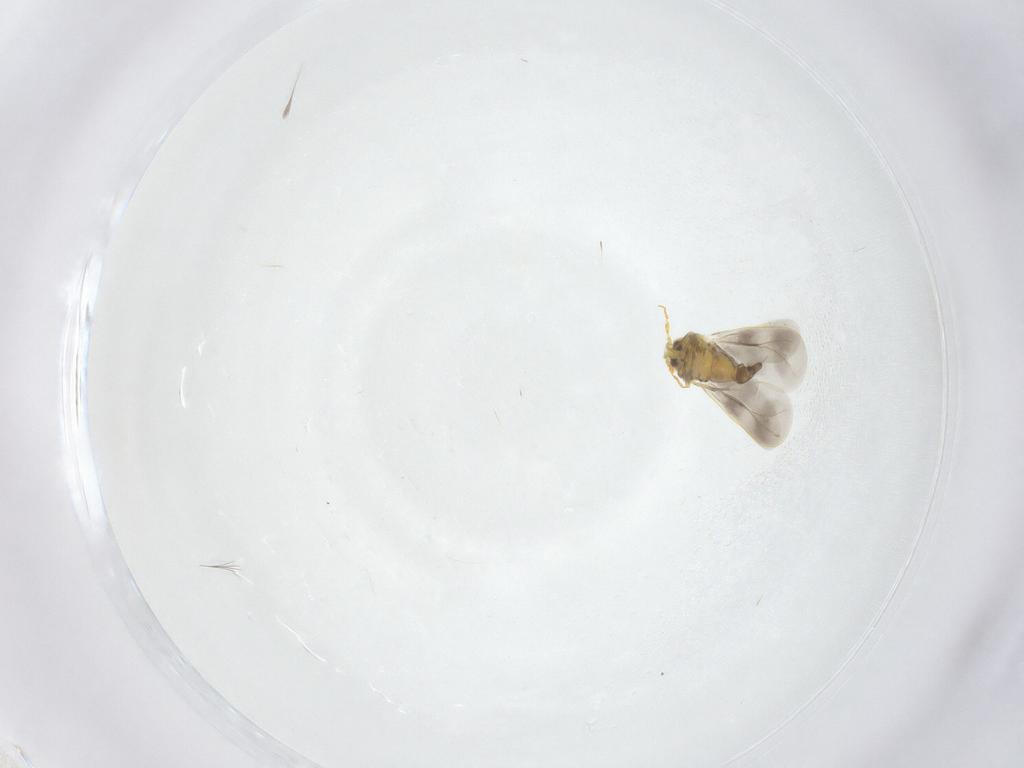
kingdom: Animalia
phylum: Arthropoda
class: Insecta
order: Hemiptera
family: Aleyrodidae
